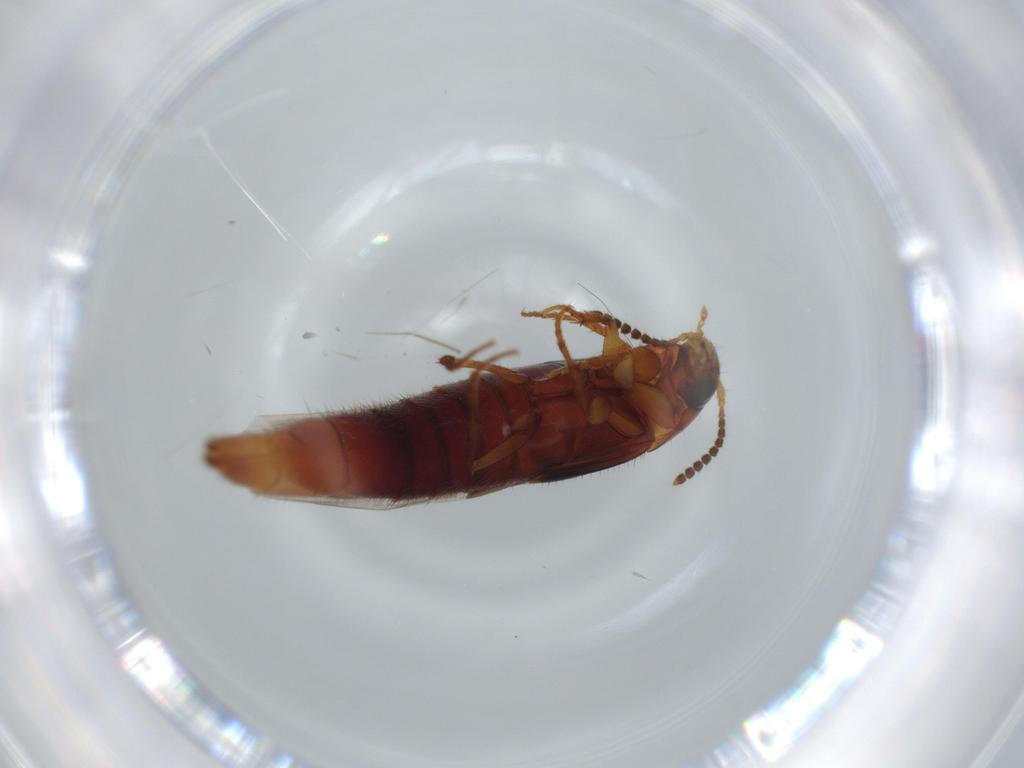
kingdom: Animalia
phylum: Arthropoda
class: Insecta
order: Coleoptera
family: Staphylinidae
